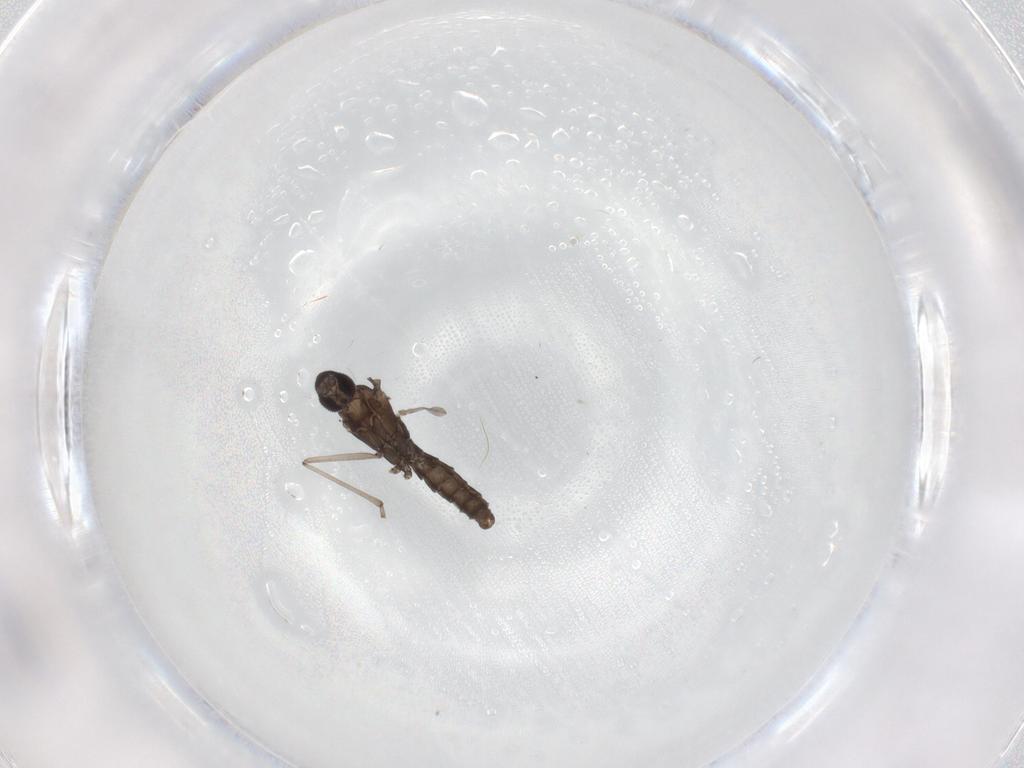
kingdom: Animalia
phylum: Arthropoda
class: Insecta
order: Diptera
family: Cecidomyiidae
